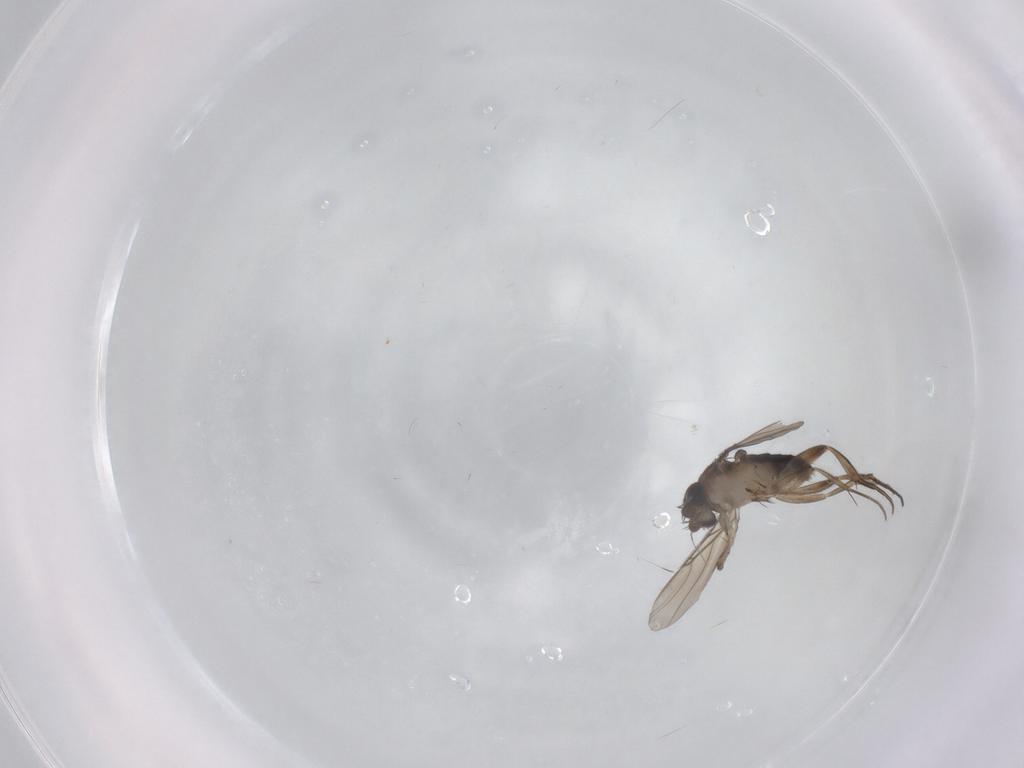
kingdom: Animalia
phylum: Arthropoda
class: Insecta
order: Diptera
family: Phoridae
